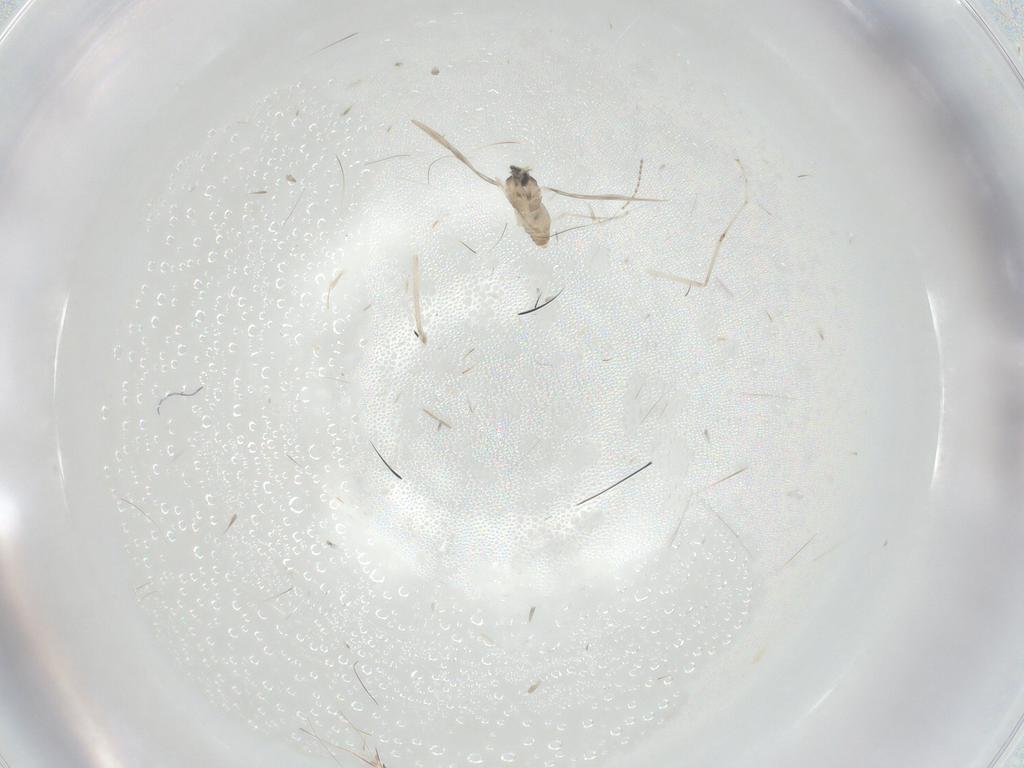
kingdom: Animalia
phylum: Arthropoda
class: Insecta
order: Diptera
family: Cecidomyiidae
